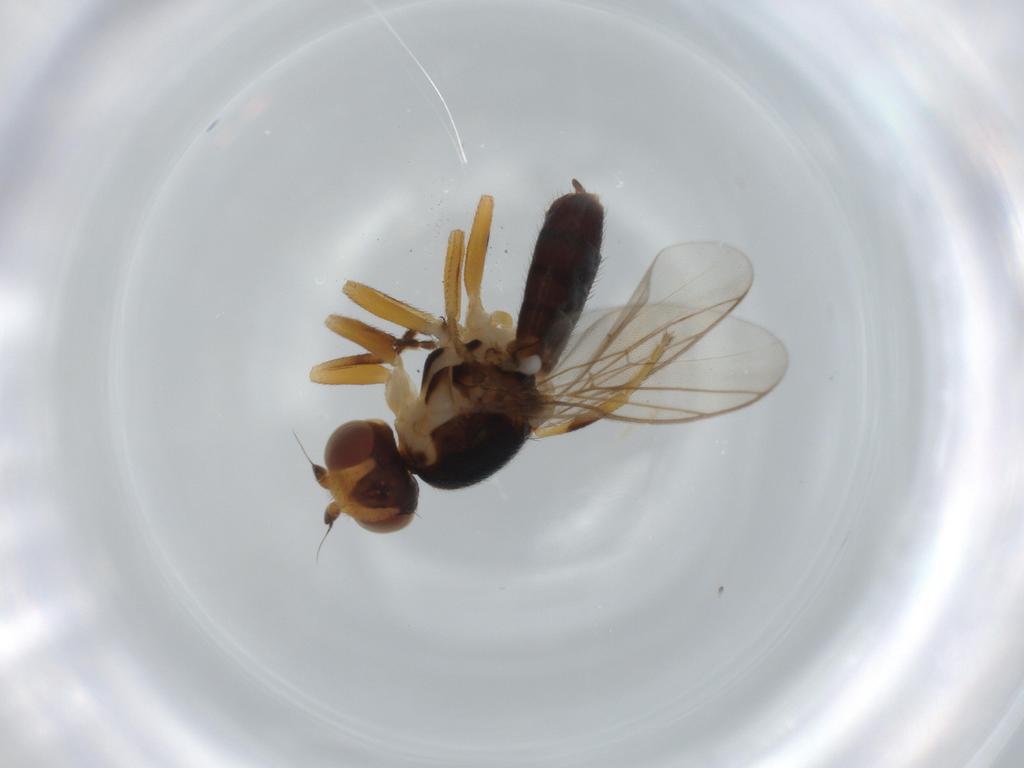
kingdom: Animalia
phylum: Arthropoda
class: Insecta
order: Diptera
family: Chloropidae
